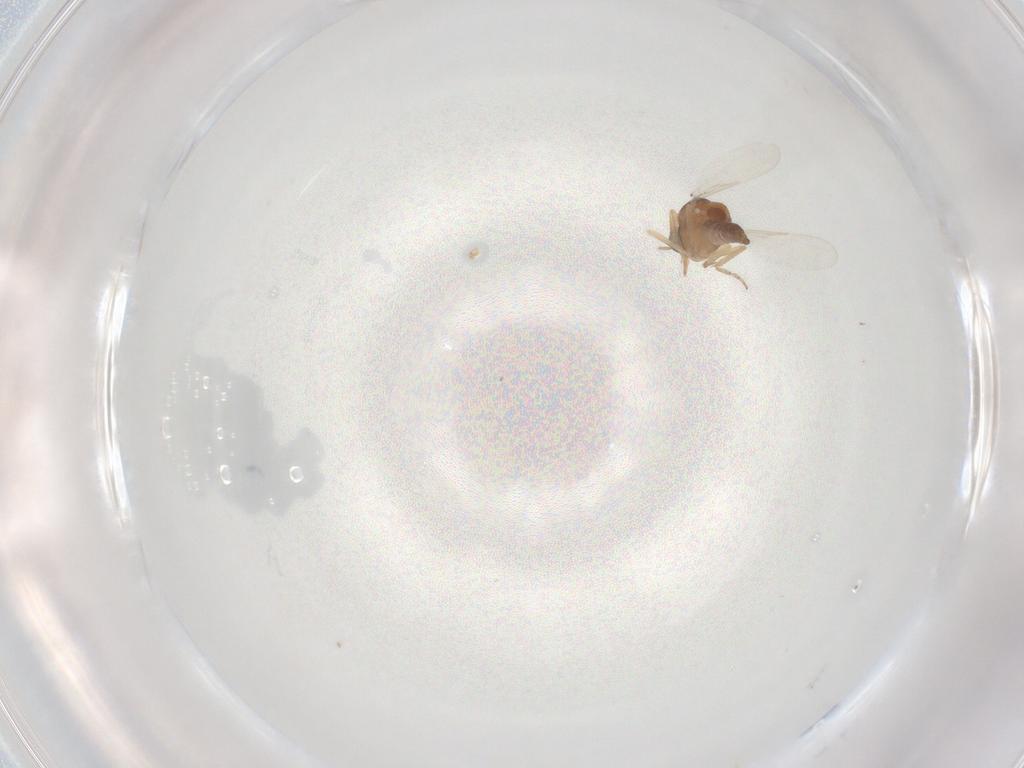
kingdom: Animalia
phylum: Arthropoda
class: Insecta
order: Diptera
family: Ceratopogonidae
